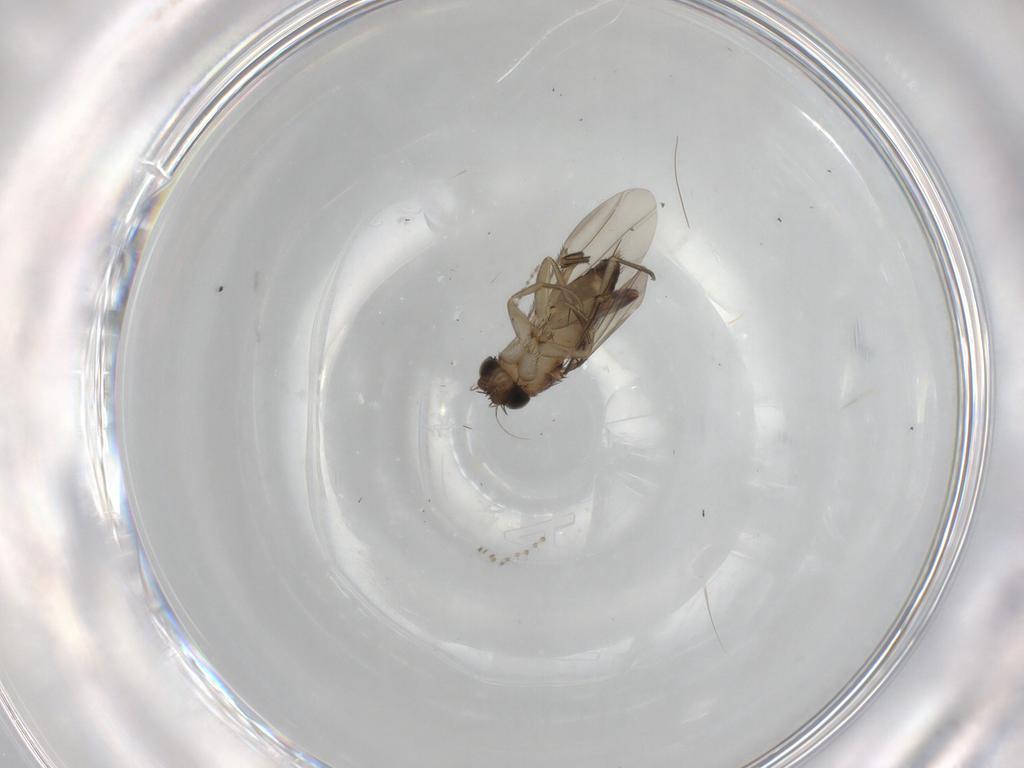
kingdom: Animalia
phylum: Arthropoda
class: Insecta
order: Diptera
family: Phoridae
